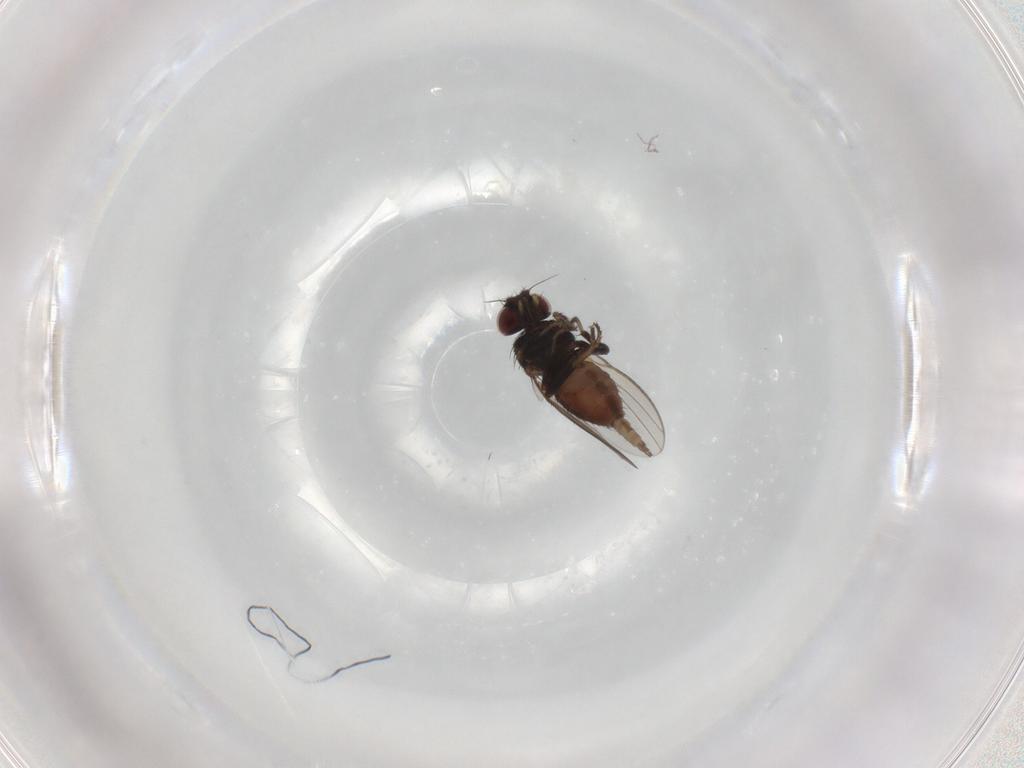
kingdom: Animalia
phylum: Arthropoda
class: Insecta
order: Diptera
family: Milichiidae
